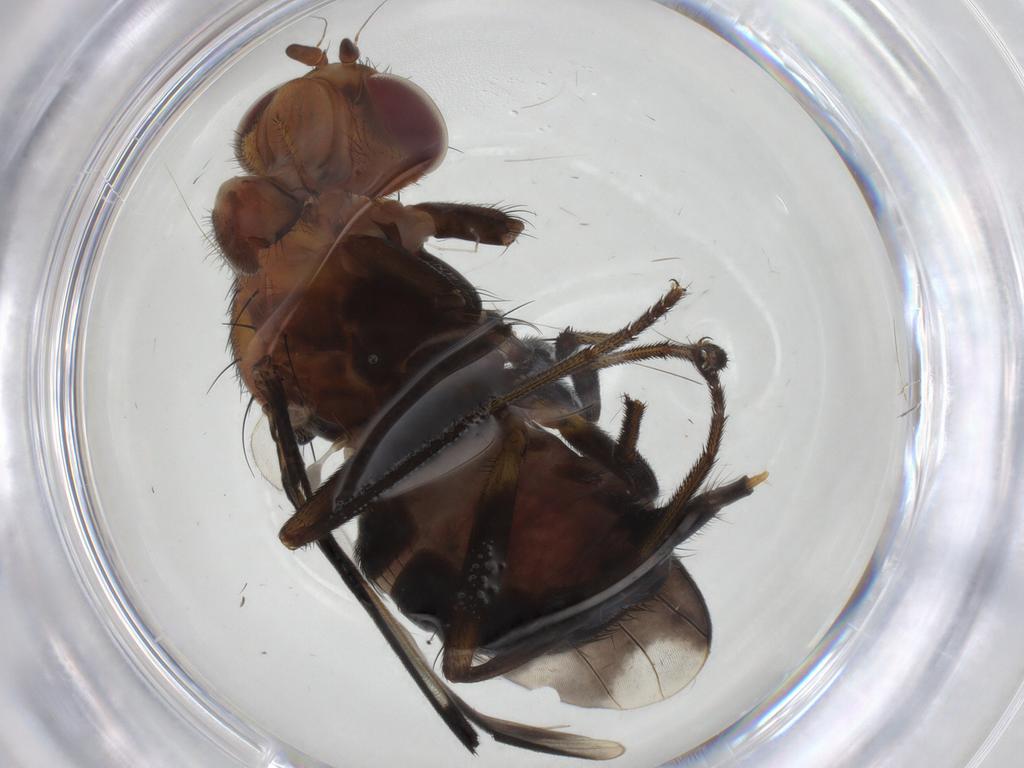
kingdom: Animalia
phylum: Arthropoda
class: Insecta
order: Diptera
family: Richardiidae
